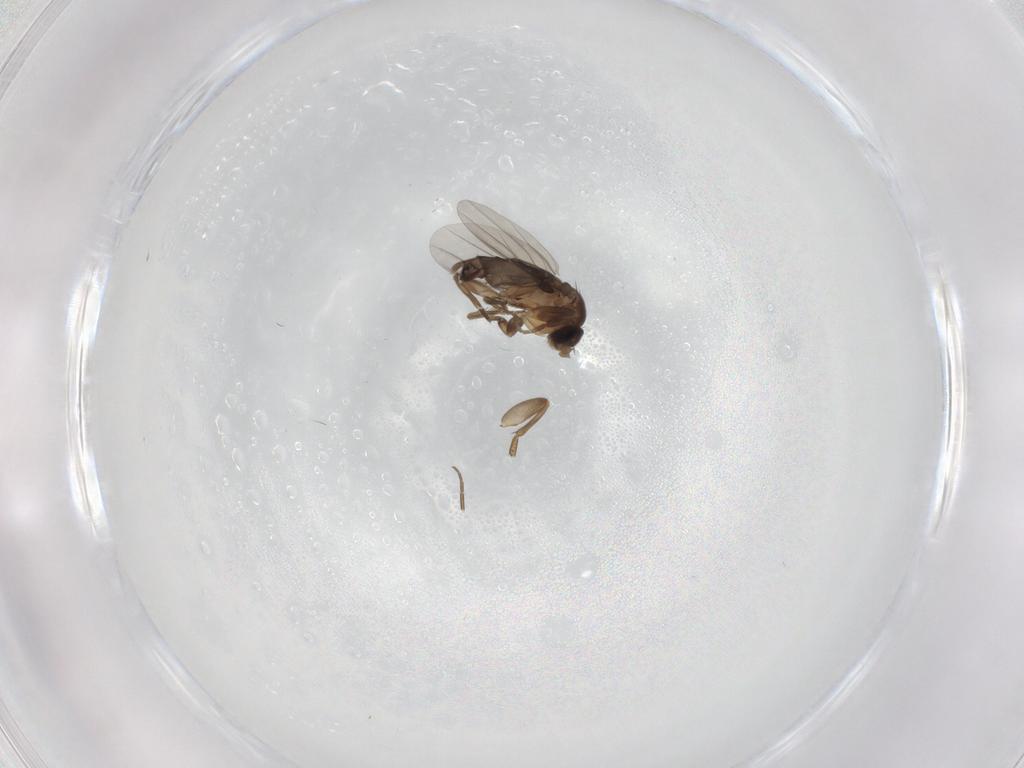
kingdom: Animalia
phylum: Arthropoda
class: Insecta
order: Diptera
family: Phoridae
